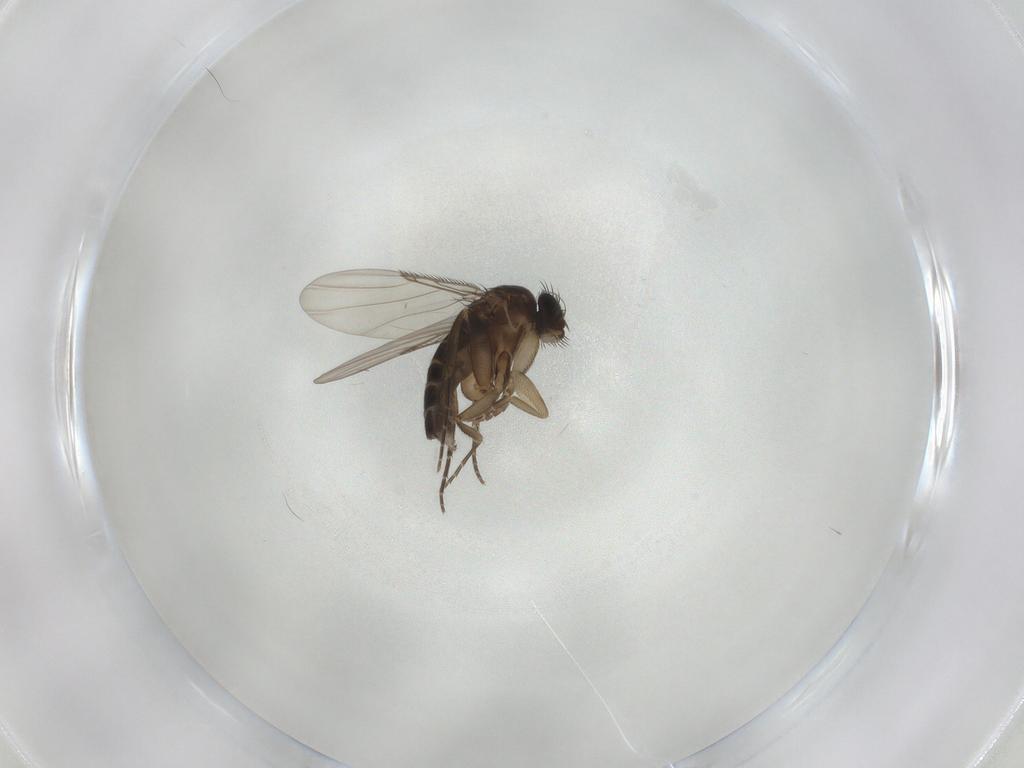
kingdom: Animalia
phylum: Arthropoda
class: Insecta
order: Diptera
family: Phoridae
